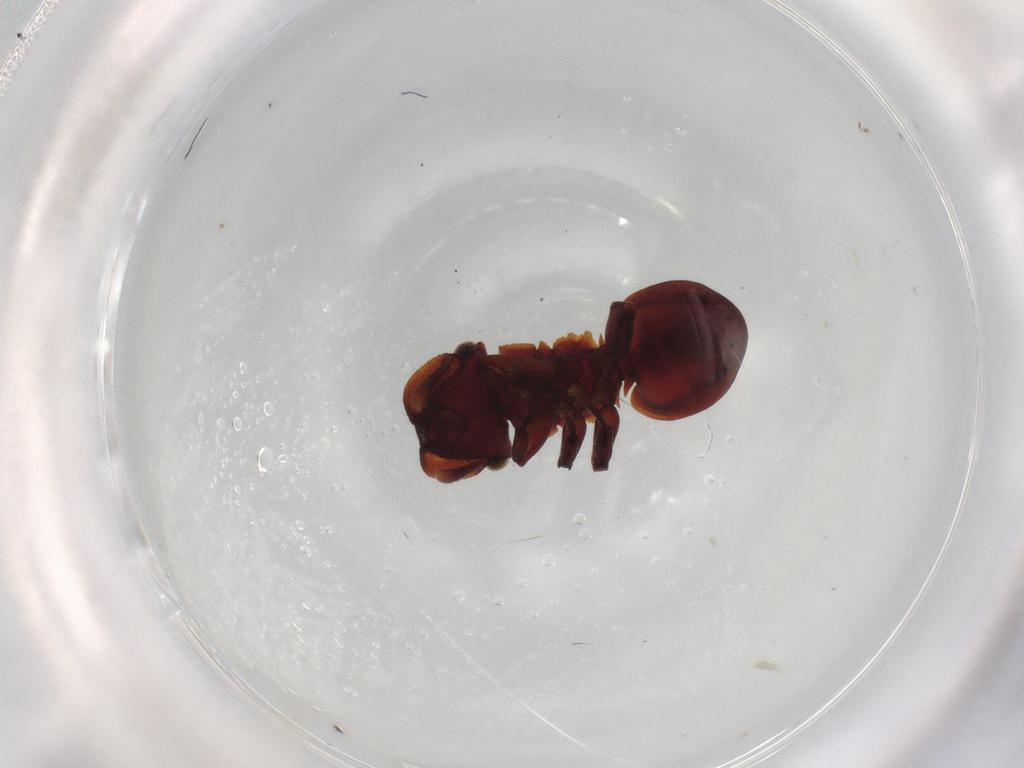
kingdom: Animalia
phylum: Arthropoda
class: Insecta
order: Hymenoptera
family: Formicidae
